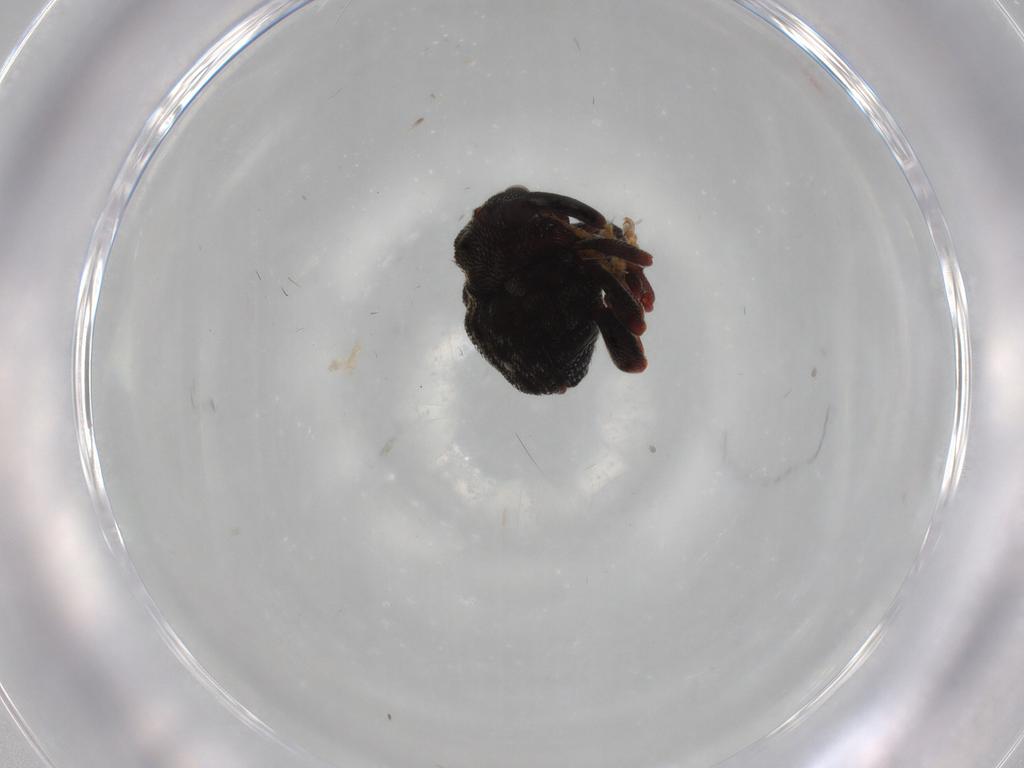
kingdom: Animalia
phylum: Arthropoda
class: Insecta
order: Coleoptera
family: Curculionidae
